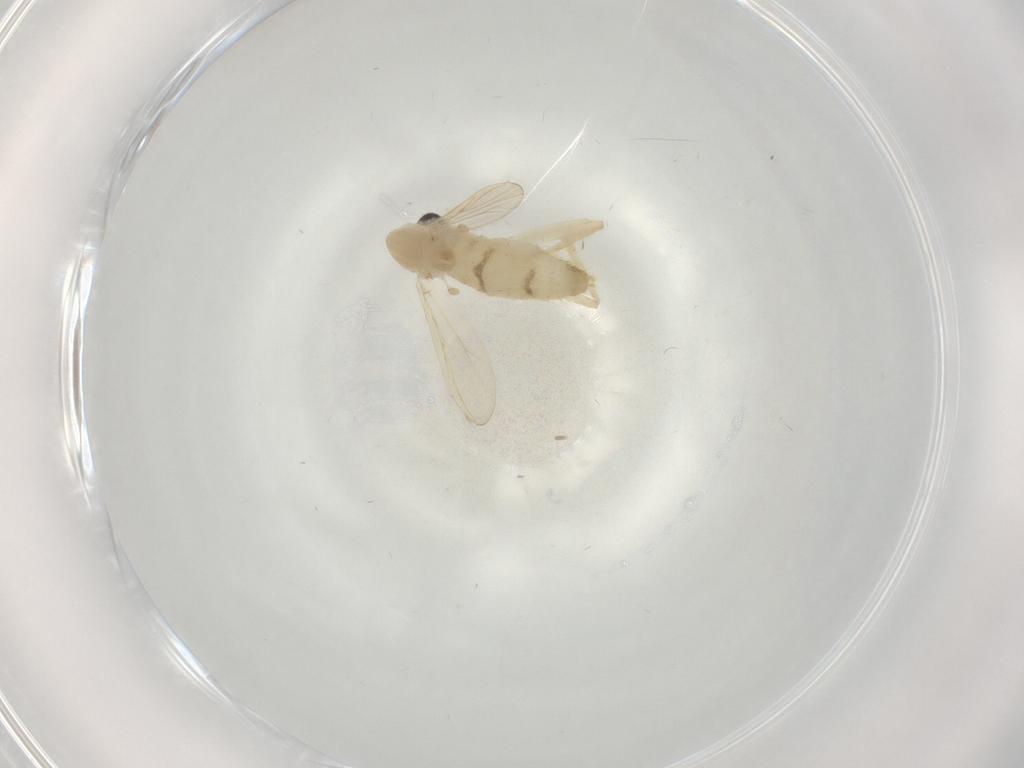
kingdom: Animalia
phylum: Arthropoda
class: Insecta
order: Diptera
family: Chironomidae
